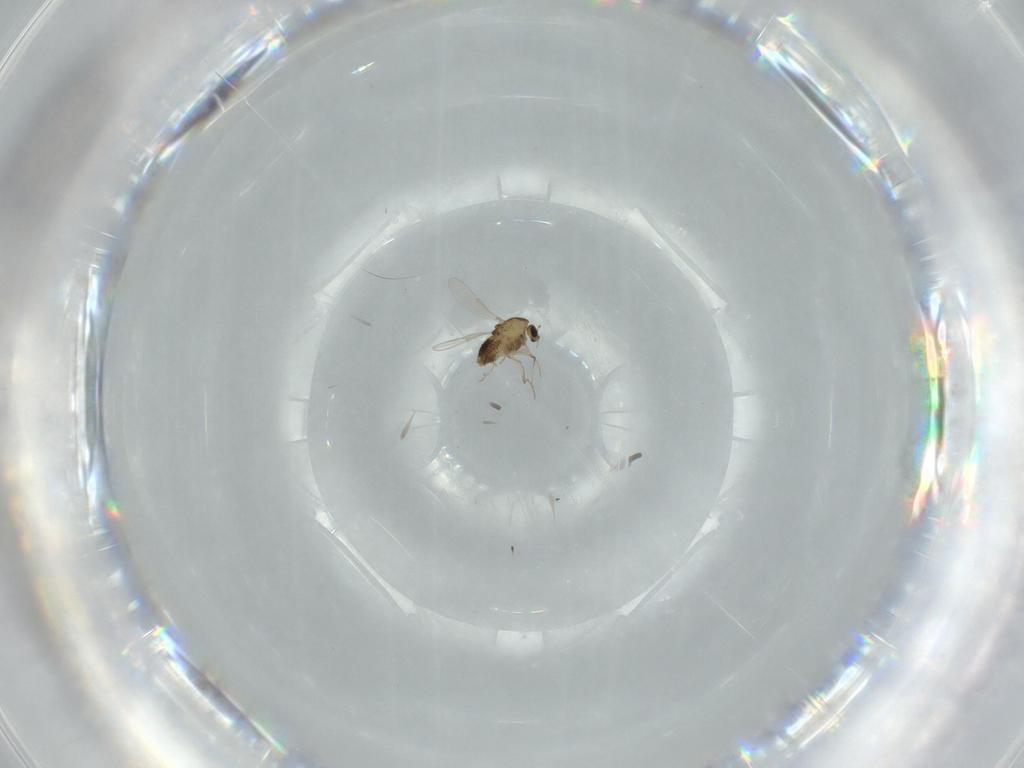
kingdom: Animalia
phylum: Arthropoda
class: Insecta
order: Diptera
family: Chironomidae
